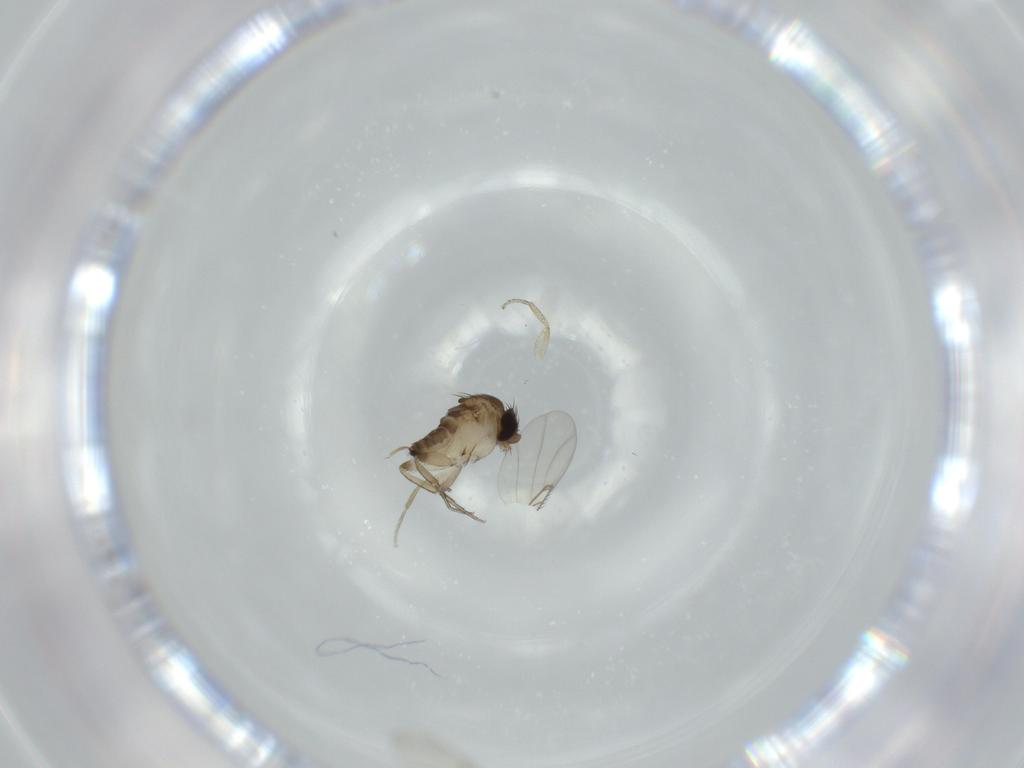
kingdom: Animalia
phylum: Arthropoda
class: Insecta
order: Diptera
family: Phoridae
